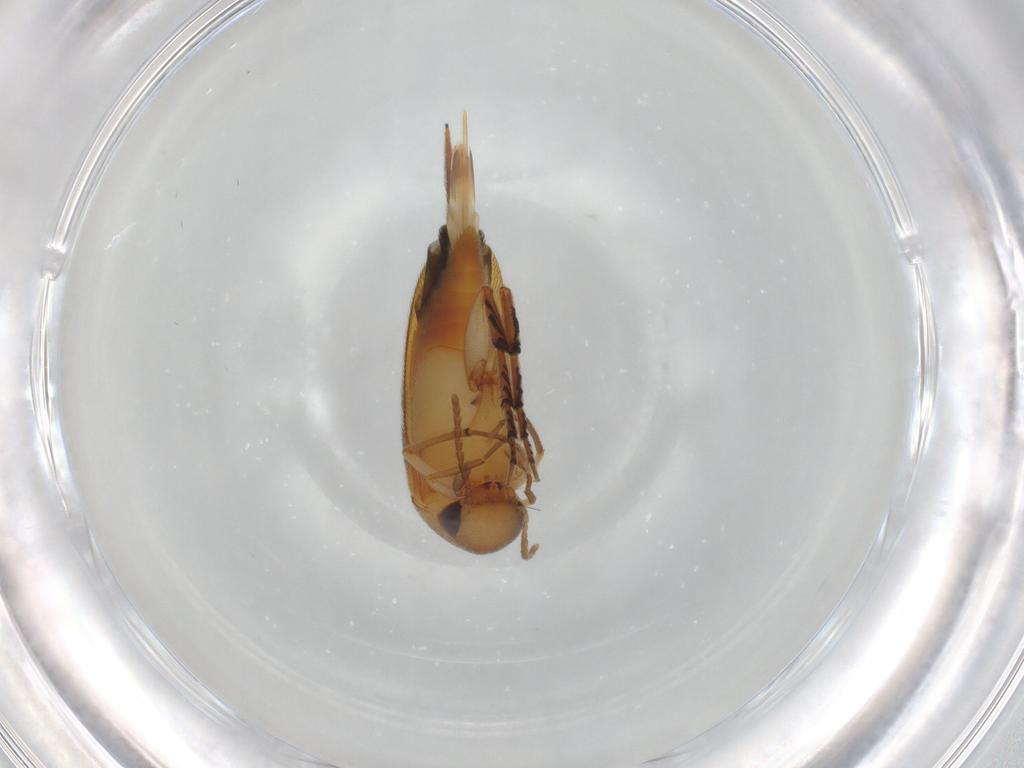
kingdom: Animalia
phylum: Arthropoda
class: Insecta
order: Coleoptera
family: Mordellidae
